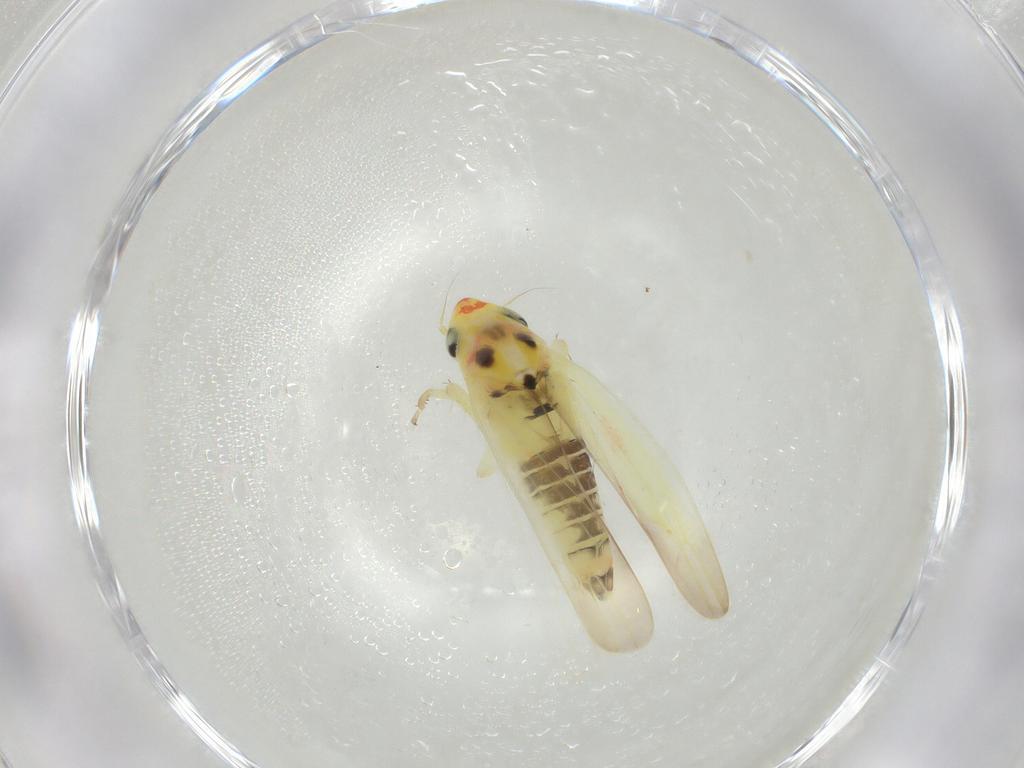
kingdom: Animalia
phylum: Arthropoda
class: Insecta
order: Hemiptera
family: Cicadellidae
